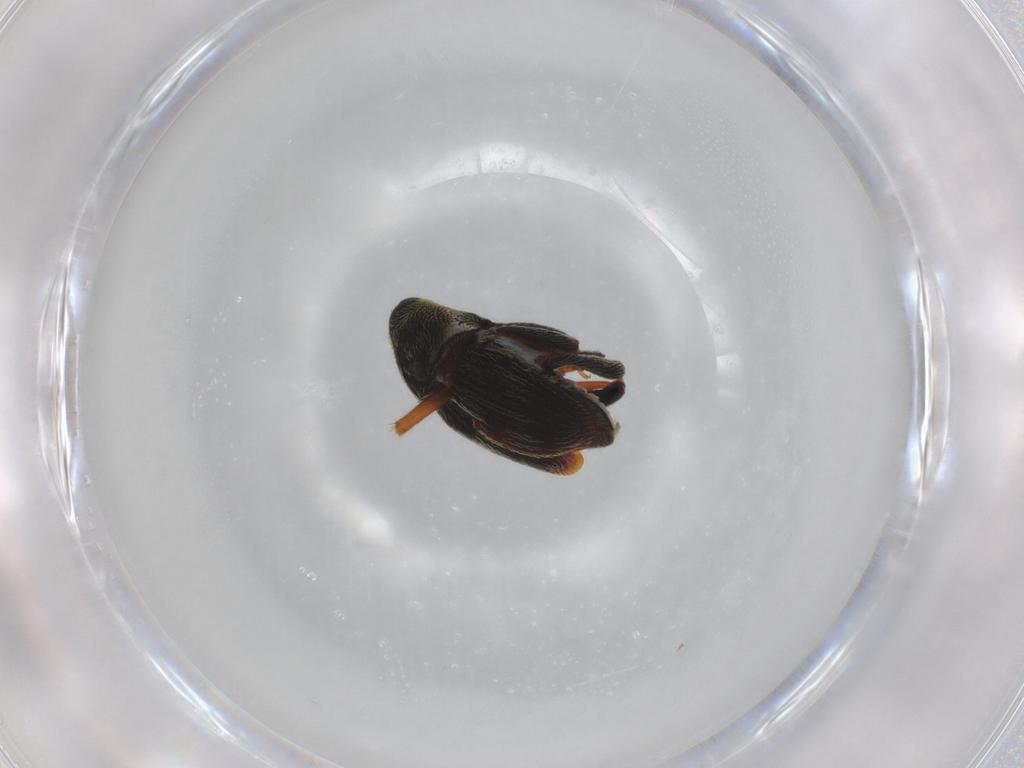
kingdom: Animalia
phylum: Arthropoda
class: Insecta
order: Coleoptera
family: Curculionidae
